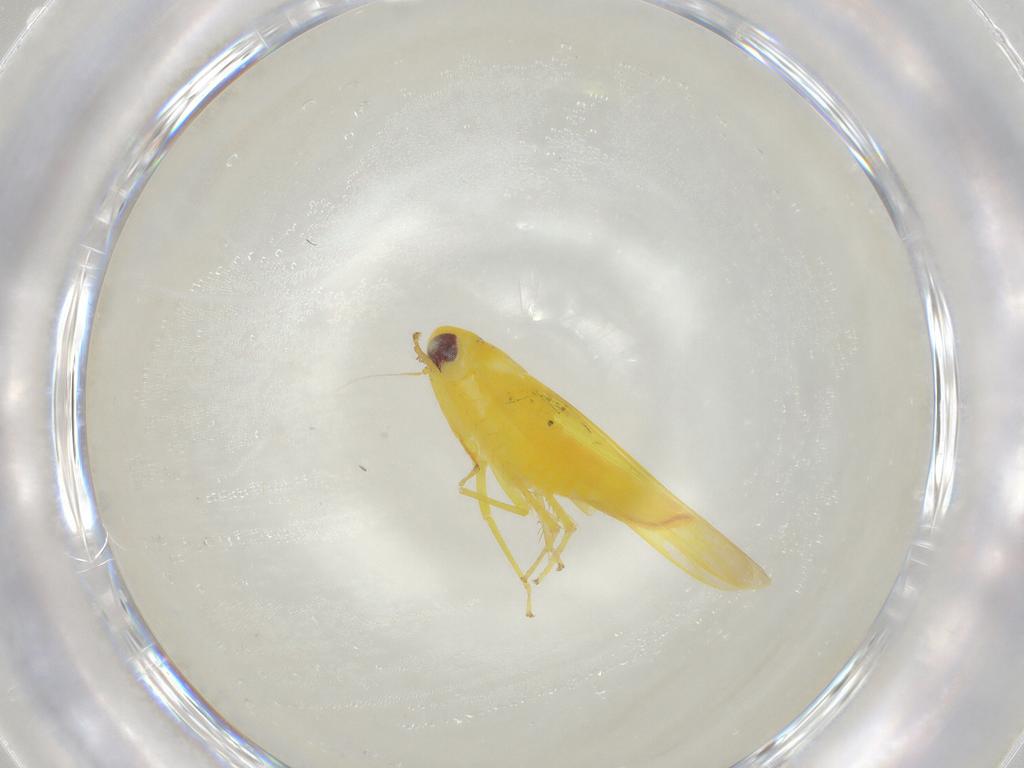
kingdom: Animalia
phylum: Arthropoda
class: Insecta
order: Hemiptera
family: Cicadellidae
